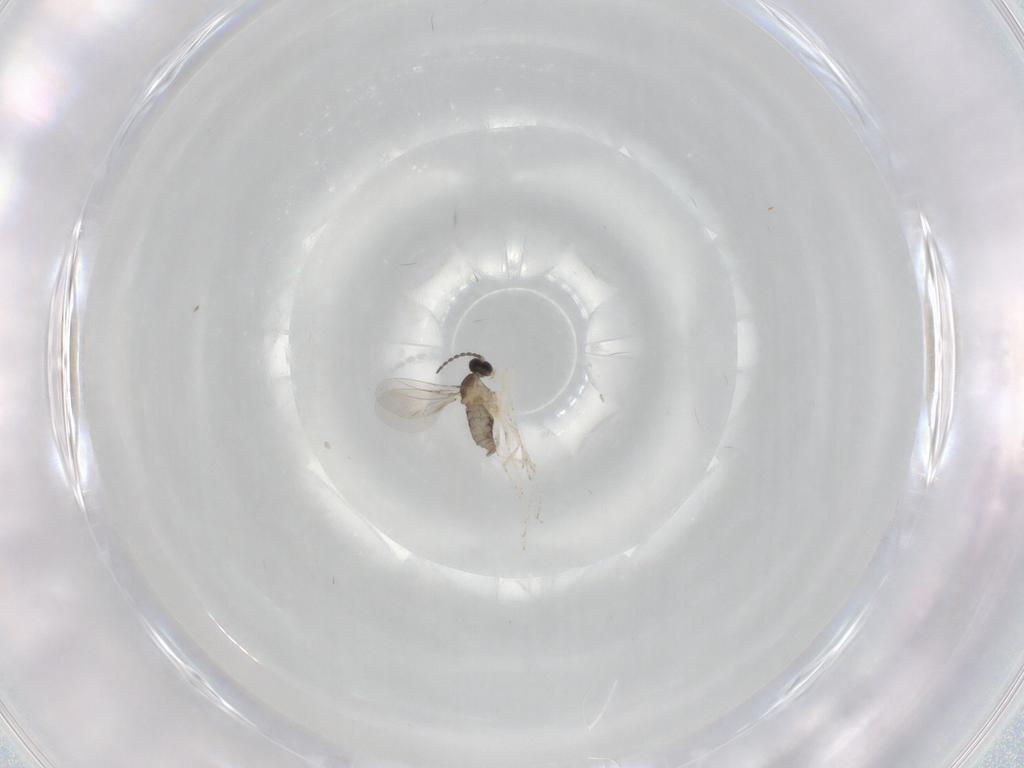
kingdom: Animalia
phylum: Arthropoda
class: Insecta
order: Diptera
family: Cecidomyiidae
